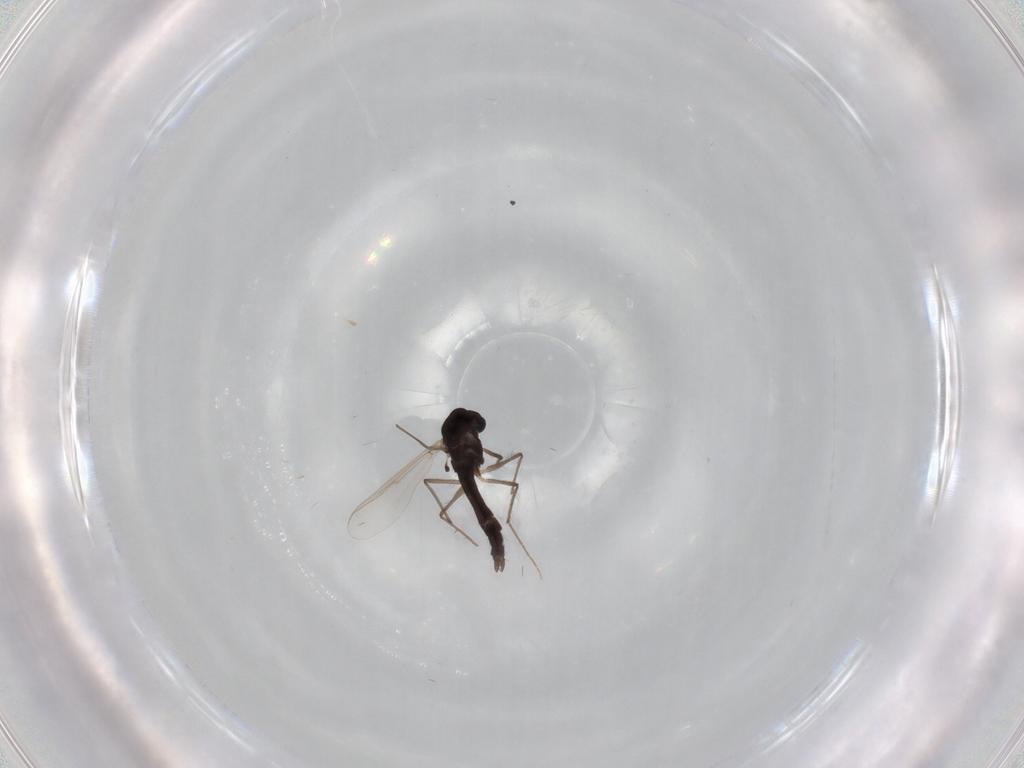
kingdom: Animalia
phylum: Arthropoda
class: Insecta
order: Diptera
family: Chironomidae
